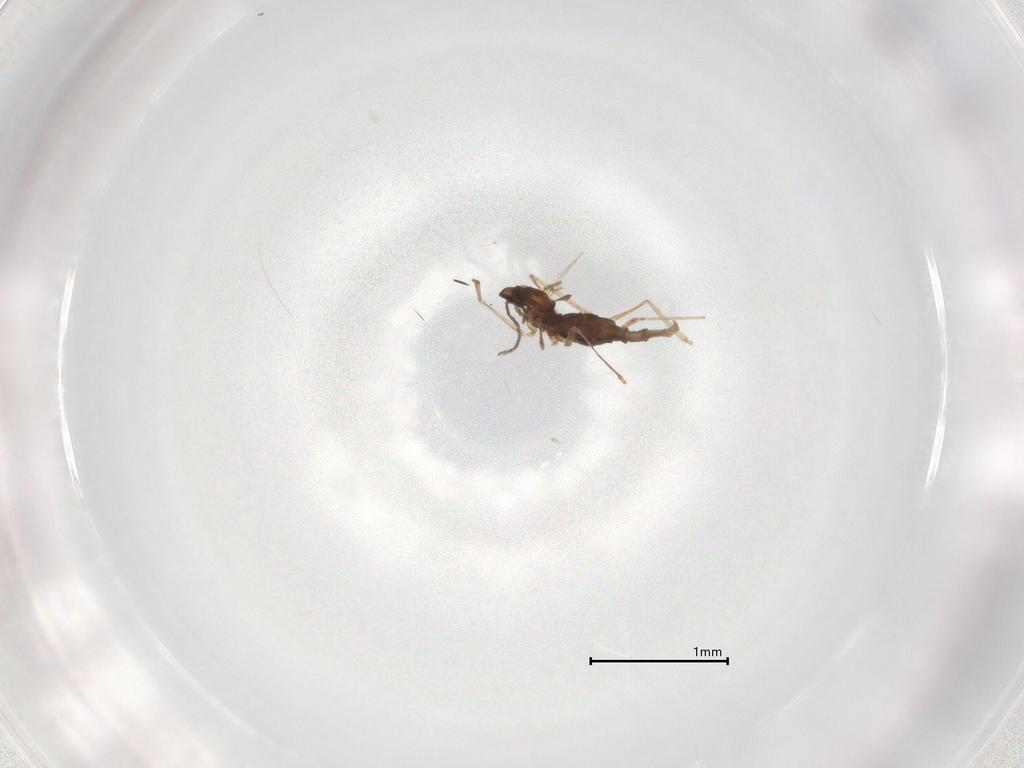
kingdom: Animalia
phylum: Arthropoda
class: Insecta
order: Diptera
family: Cecidomyiidae
